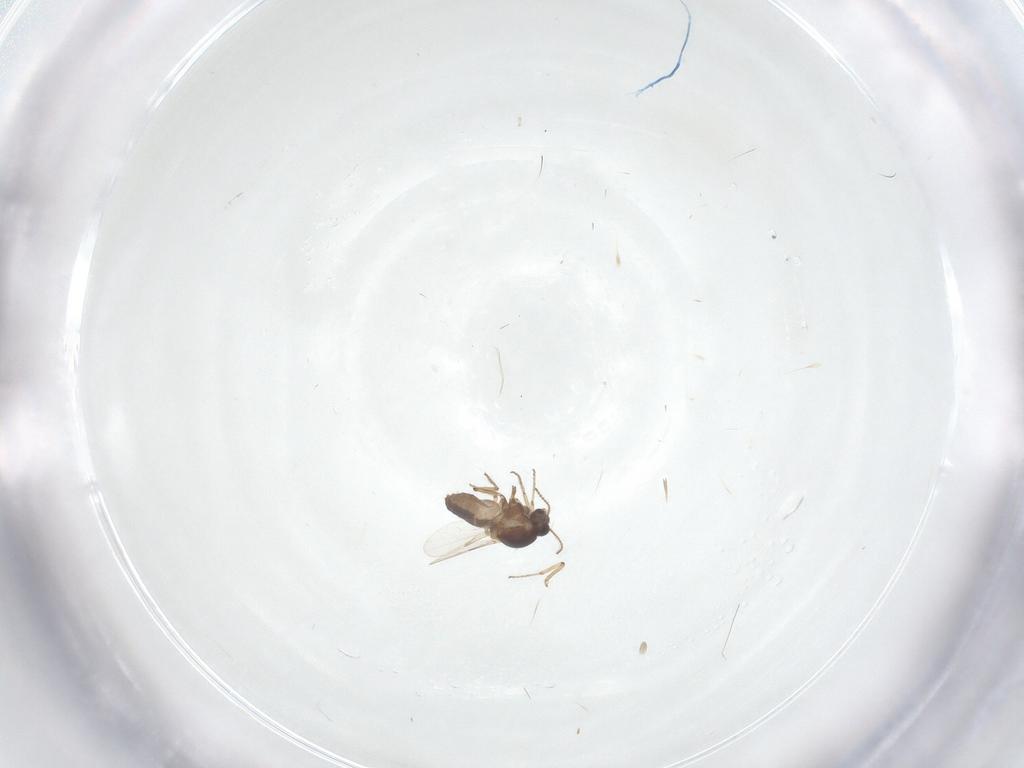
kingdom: Animalia
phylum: Arthropoda
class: Insecta
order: Diptera
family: Ceratopogonidae
